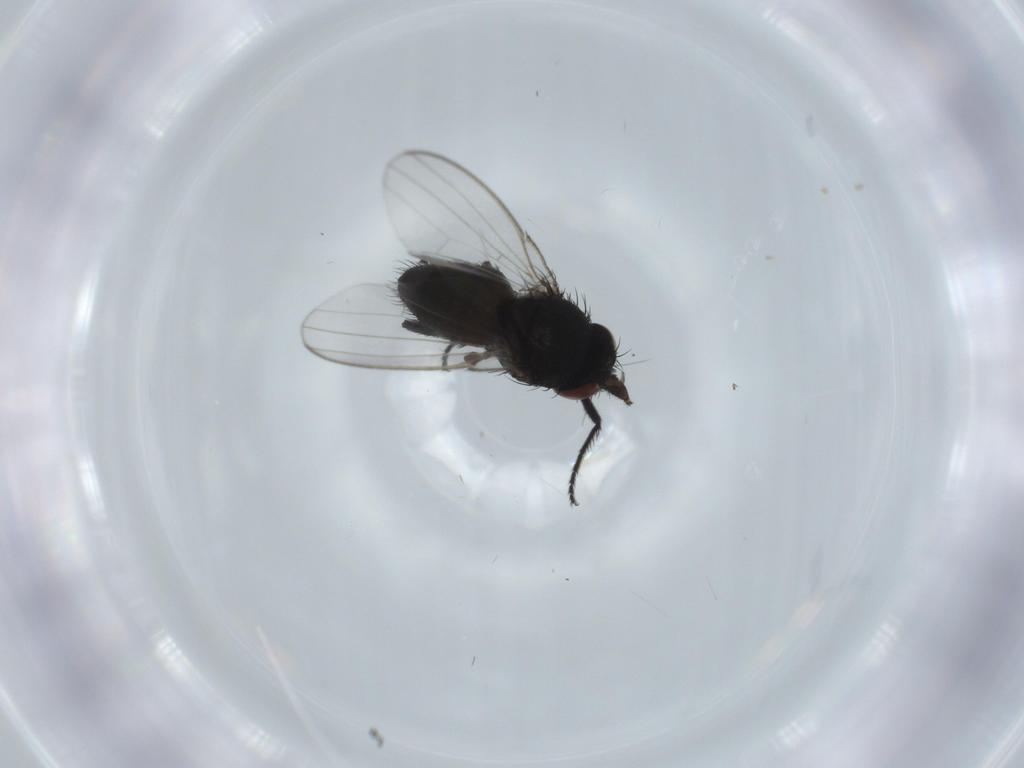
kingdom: Animalia
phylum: Arthropoda
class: Insecta
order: Diptera
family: Milichiidae
